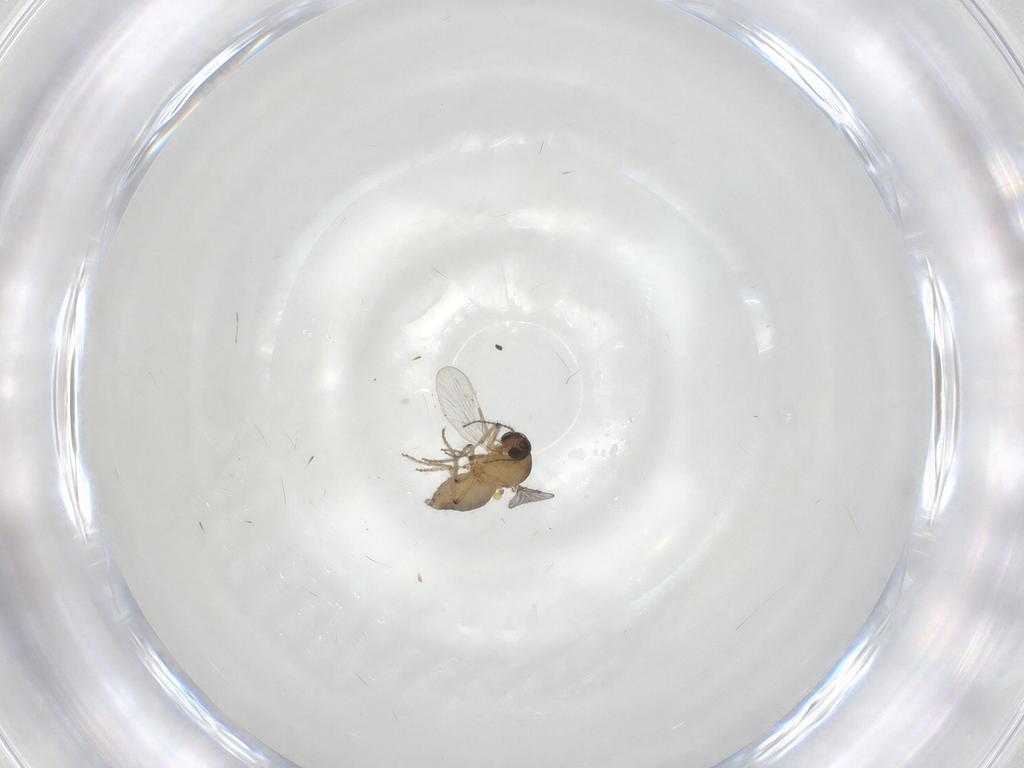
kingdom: Animalia
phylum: Arthropoda
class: Insecta
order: Diptera
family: Ceratopogonidae
